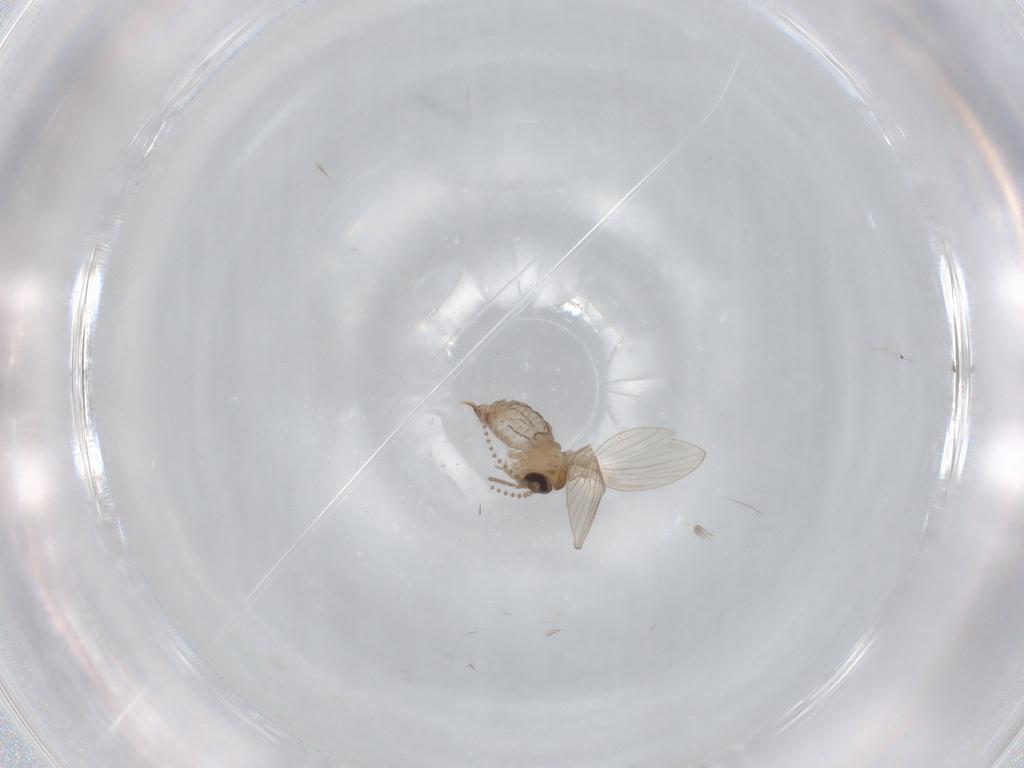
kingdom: Animalia
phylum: Arthropoda
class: Insecta
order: Diptera
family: Psychodidae
